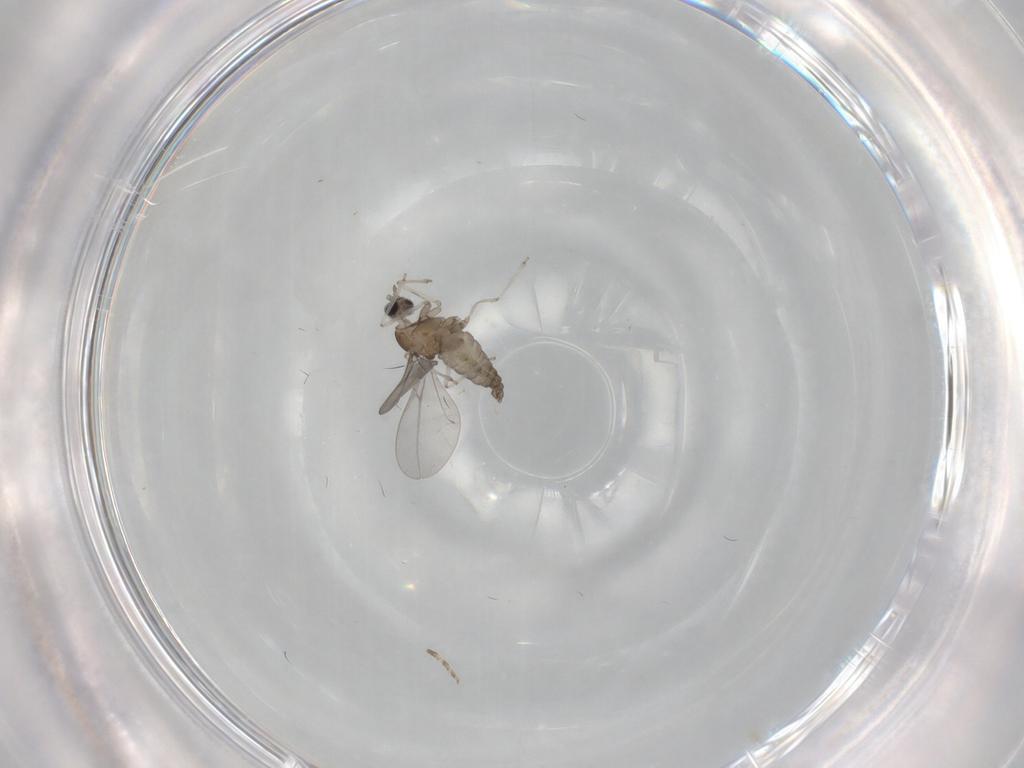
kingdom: Animalia
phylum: Arthropoda
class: Insecta
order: Diptera
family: Cecidomyiidae
